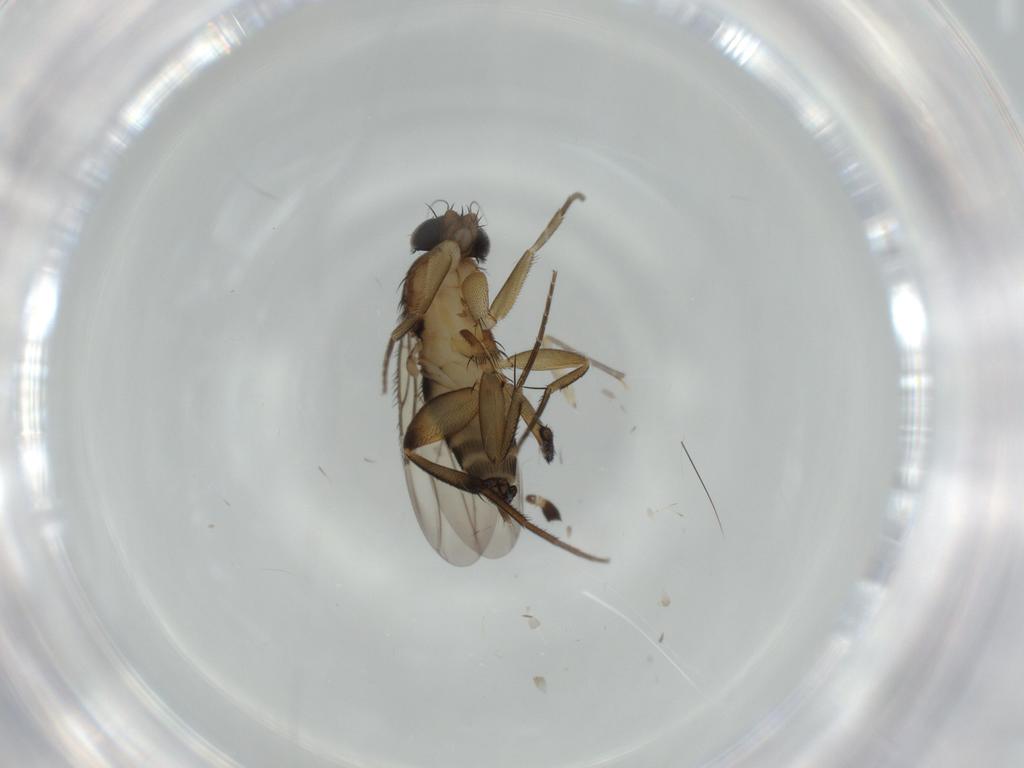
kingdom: Animalia
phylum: Arthropoda
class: Insecta
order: Diptera
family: Phoridae
